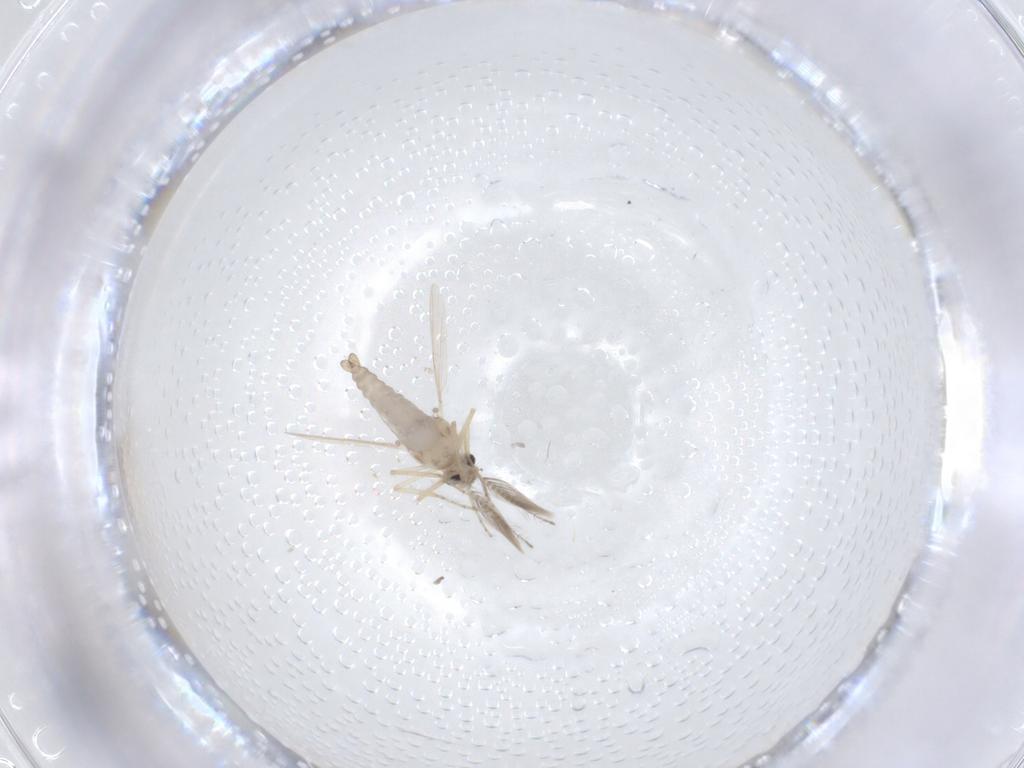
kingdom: Animalia
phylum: Arthropoda
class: Insecta
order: Diptera
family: Ceratopogonidae
